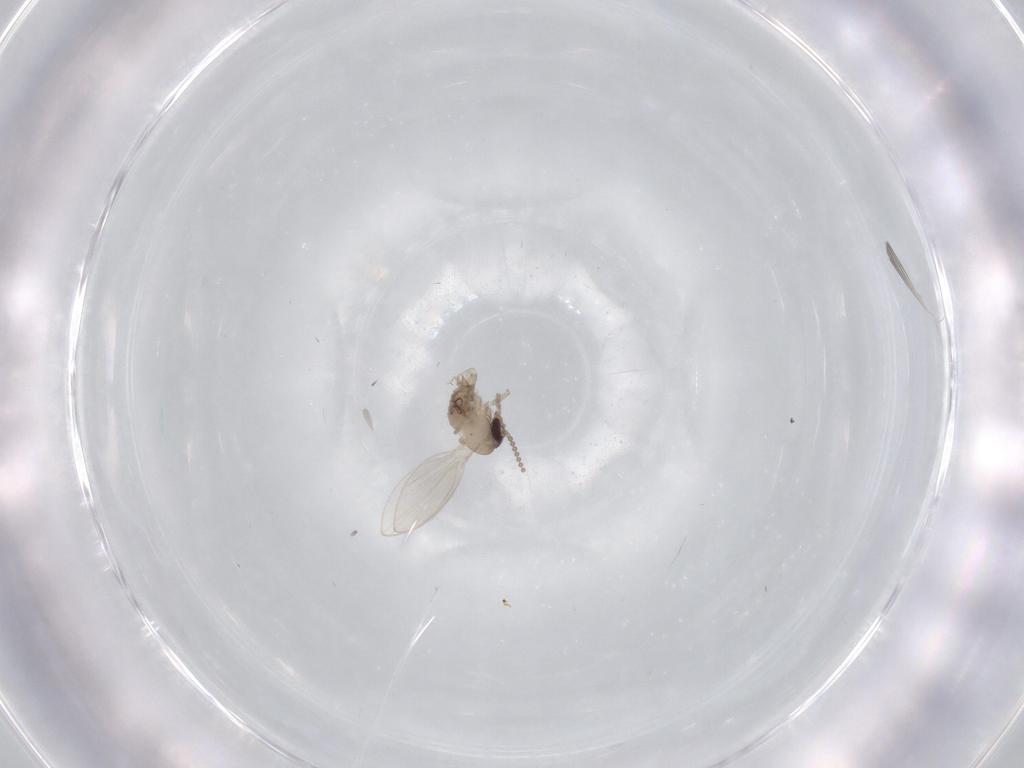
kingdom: Animalia
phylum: Arthropoda
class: Insecta
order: Diptera
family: Psychodidae
